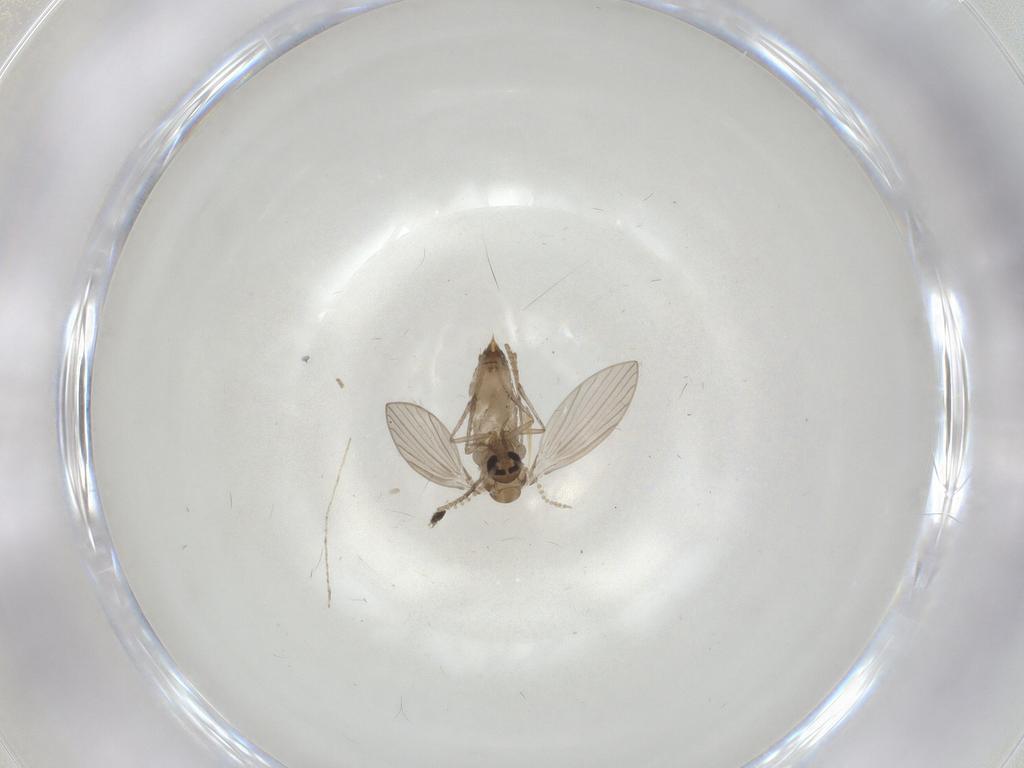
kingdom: Animalia
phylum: Arthropoda
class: Insecta
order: Diptera
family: Psychodidae
